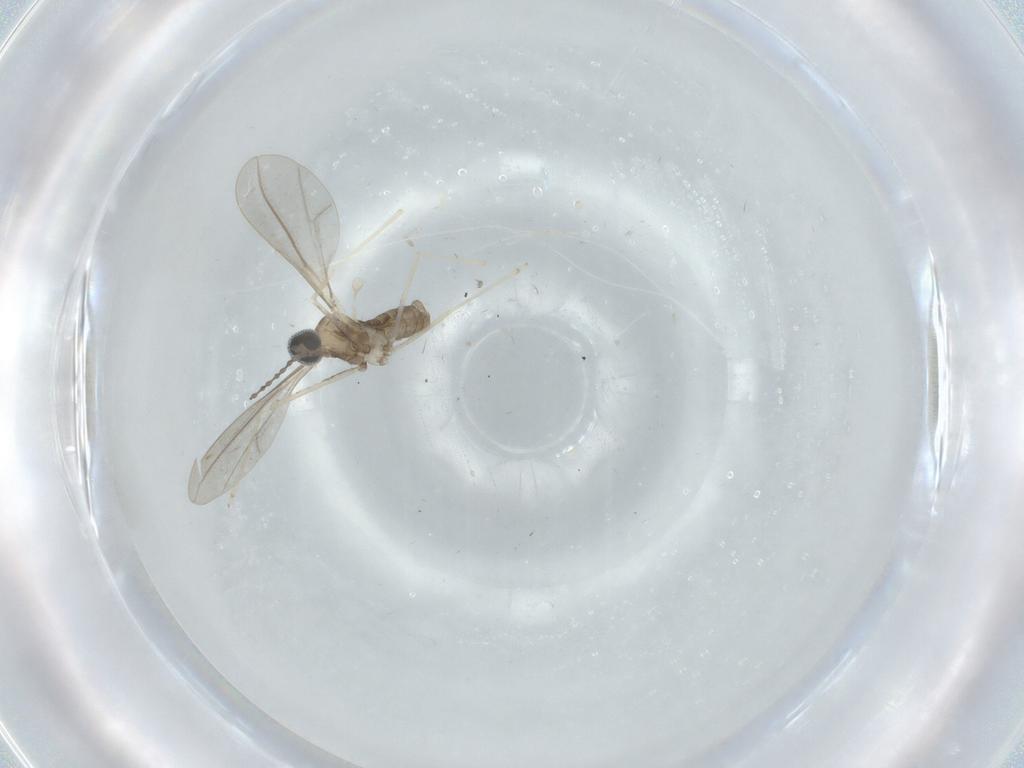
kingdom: Animalia
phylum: Arthropoda
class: Insecta
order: Diptera
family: Cecidomyiidae
